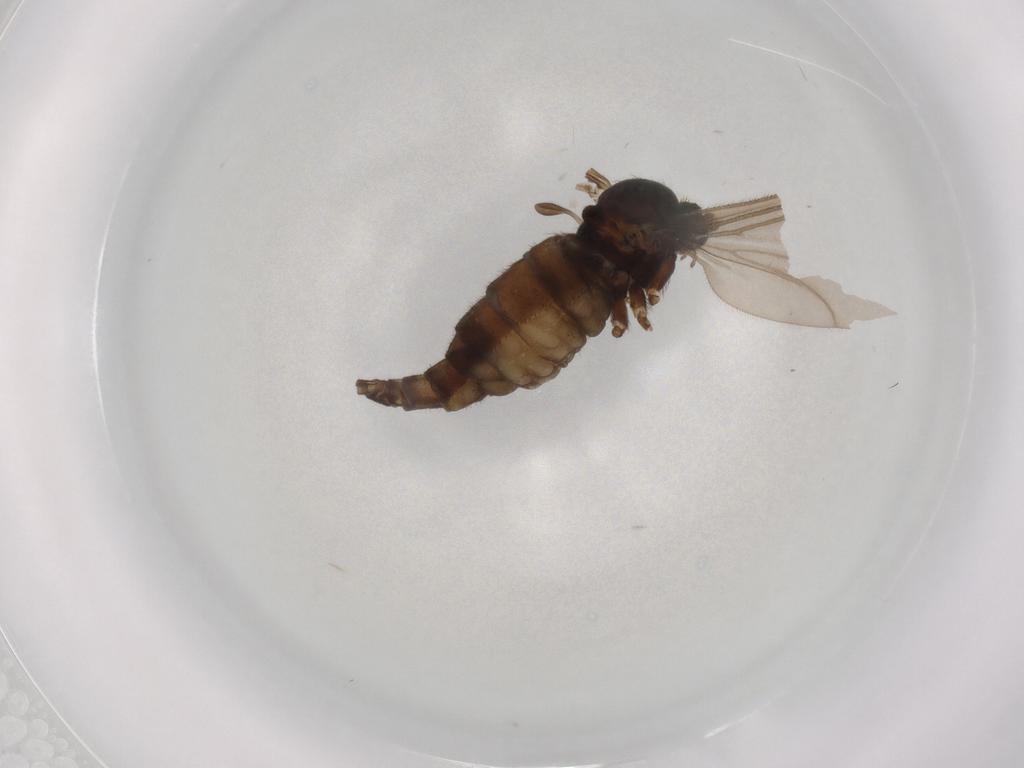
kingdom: Animalia
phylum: Arthropoda
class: Insecta
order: Diptera
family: Sciaridae
